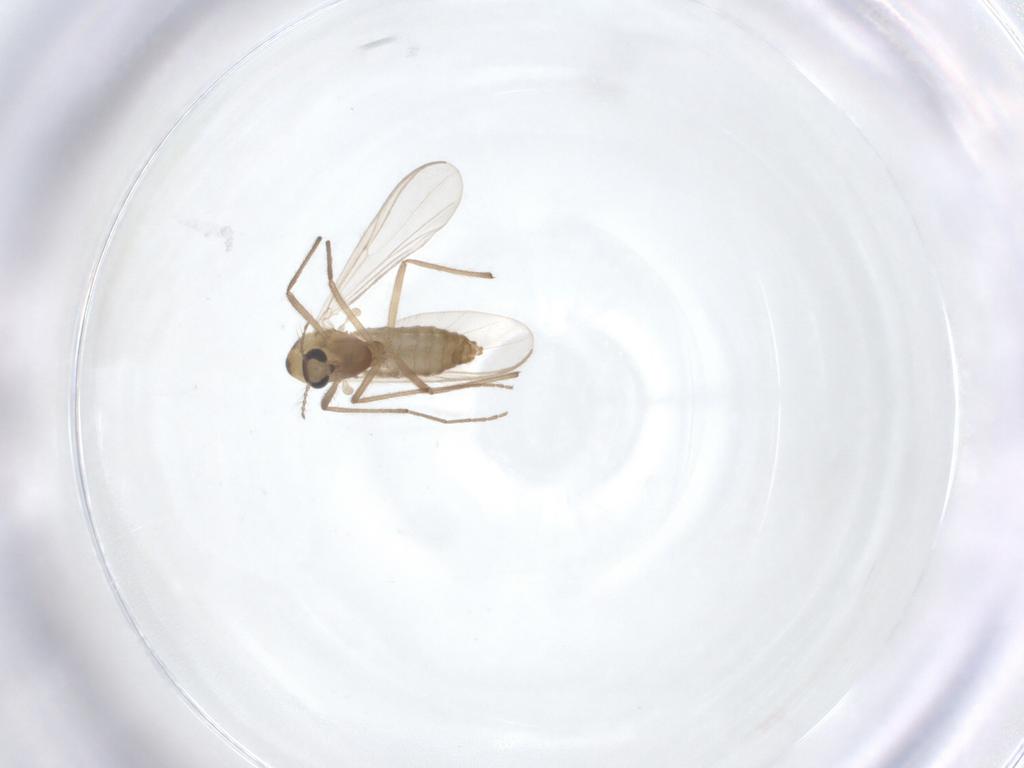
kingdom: Animalia
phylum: Arthropoda
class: Insecta
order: Diptera
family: Chironomidae
